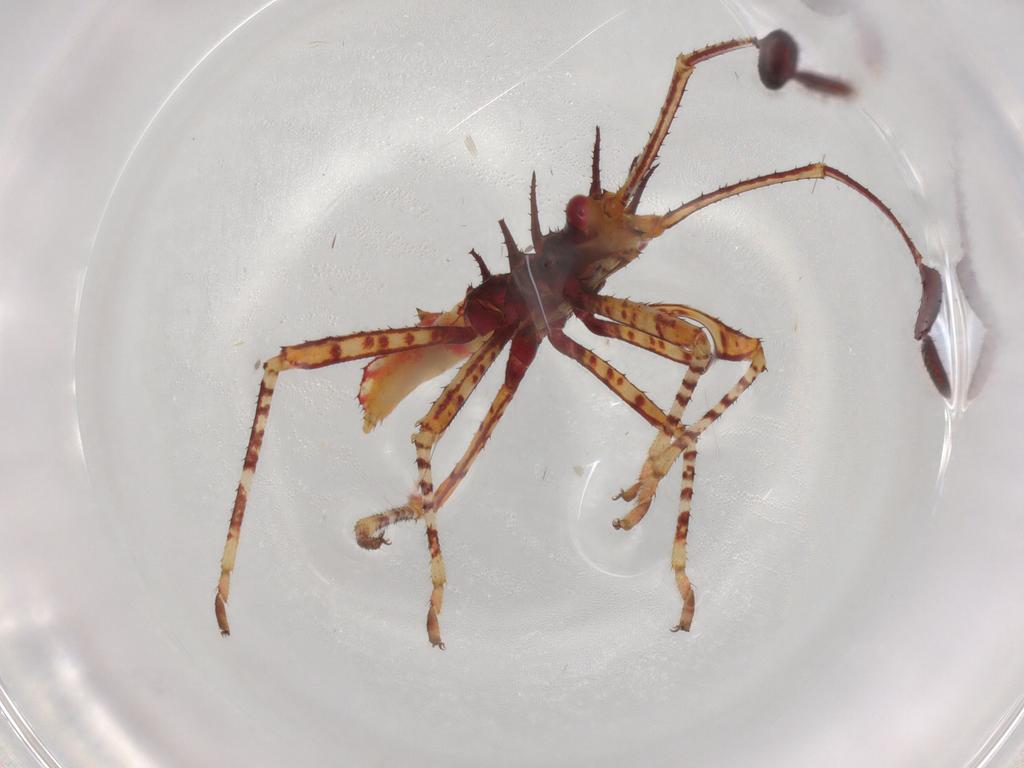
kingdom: Animalia
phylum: Arthropoda
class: Insecta
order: Hemiptera
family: Coreidae
